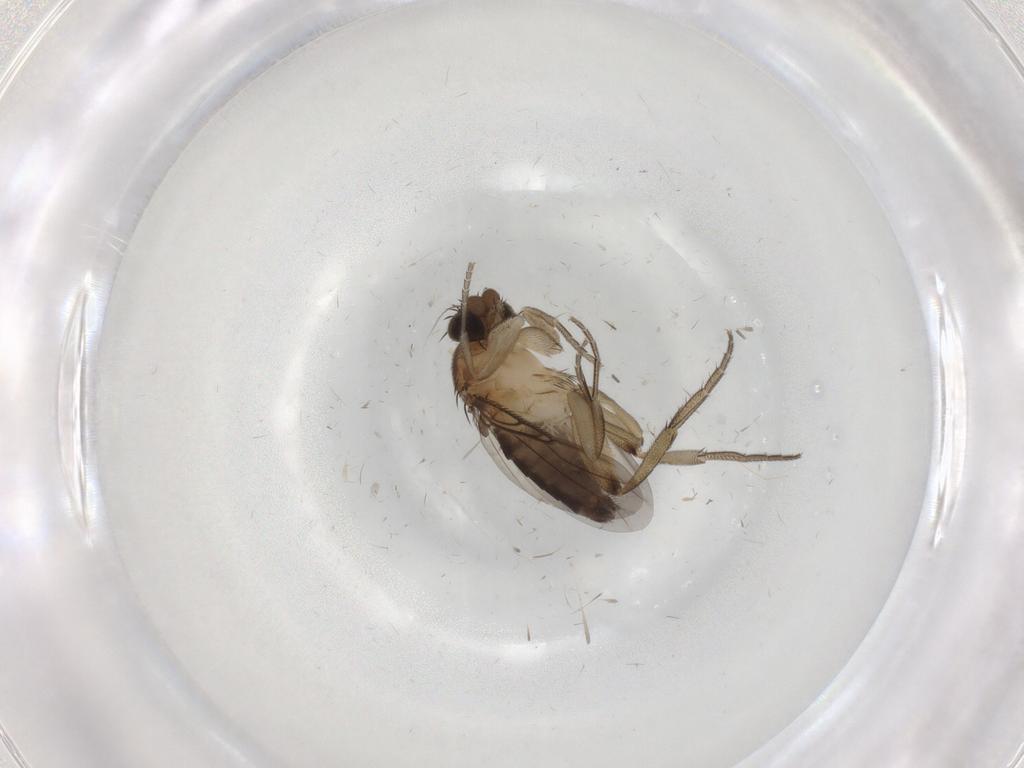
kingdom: Animalia
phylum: Arthropoda
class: Insecta
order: Diptera
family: Phoridae
